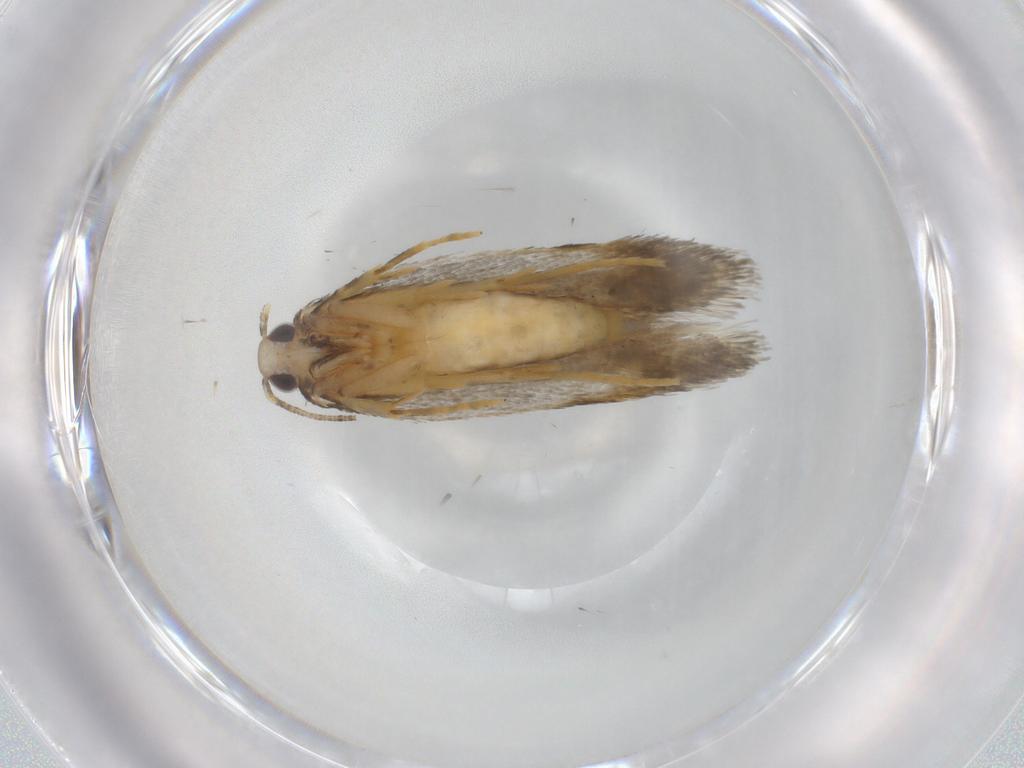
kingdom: Animalia
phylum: Arthropoda
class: Insecta
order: Lepidoptera
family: Autostichidae
